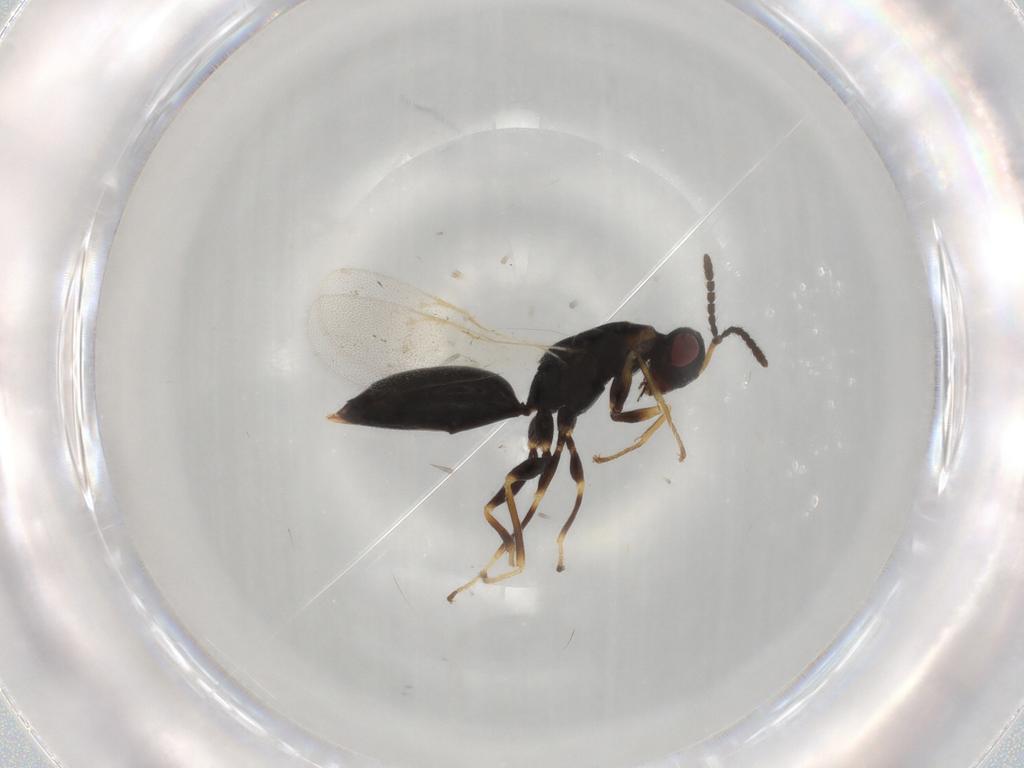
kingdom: Animalia
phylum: Arthropoda
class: Insecta
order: Hymenoptera
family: Eurytomidae
